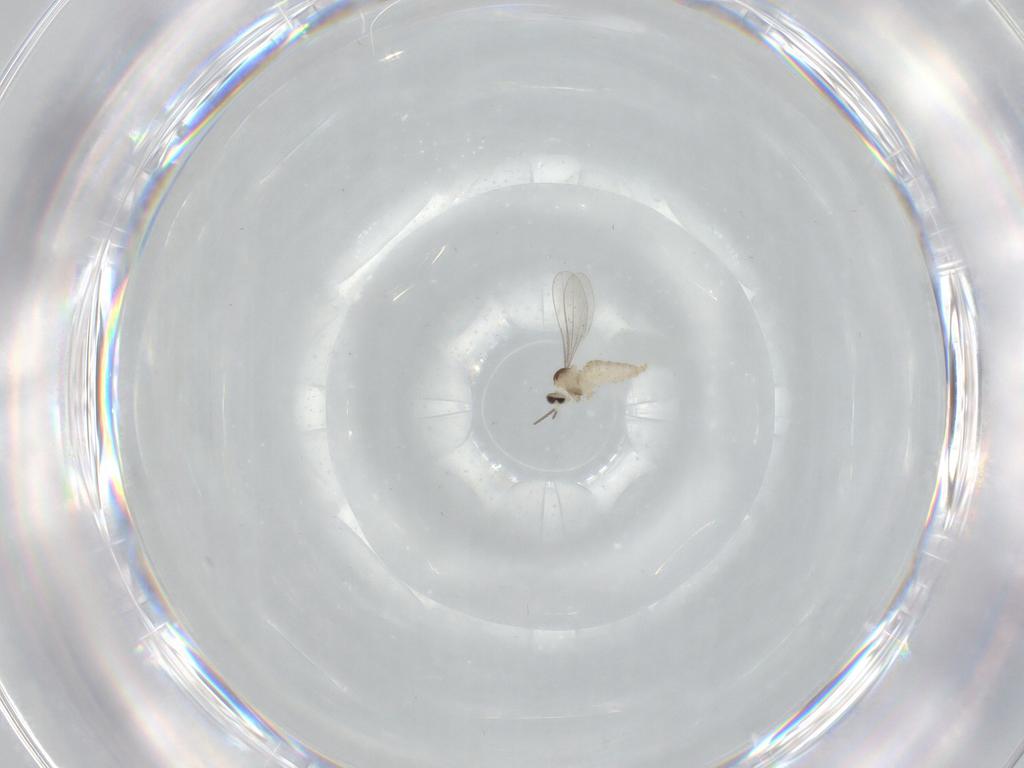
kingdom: Animalia
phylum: Arthropoda
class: Insecta
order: Diptera
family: Cecidomyiidae
